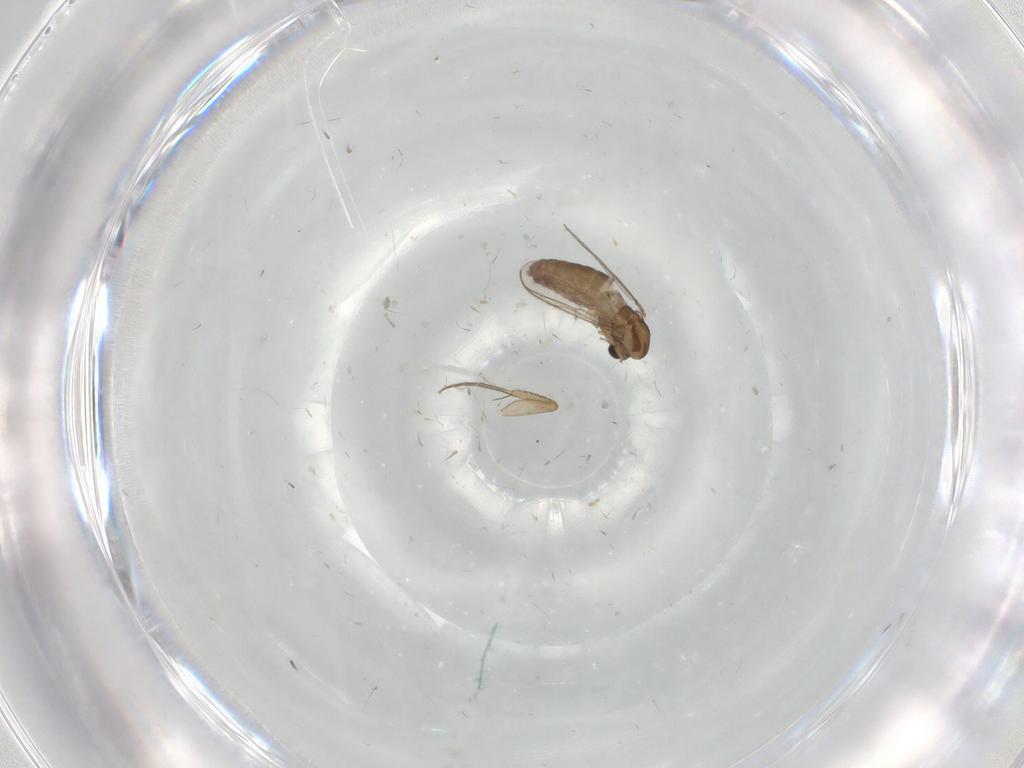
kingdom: Animalia
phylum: Arthropoda
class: Insecta
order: Diptera
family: Chironomidae
